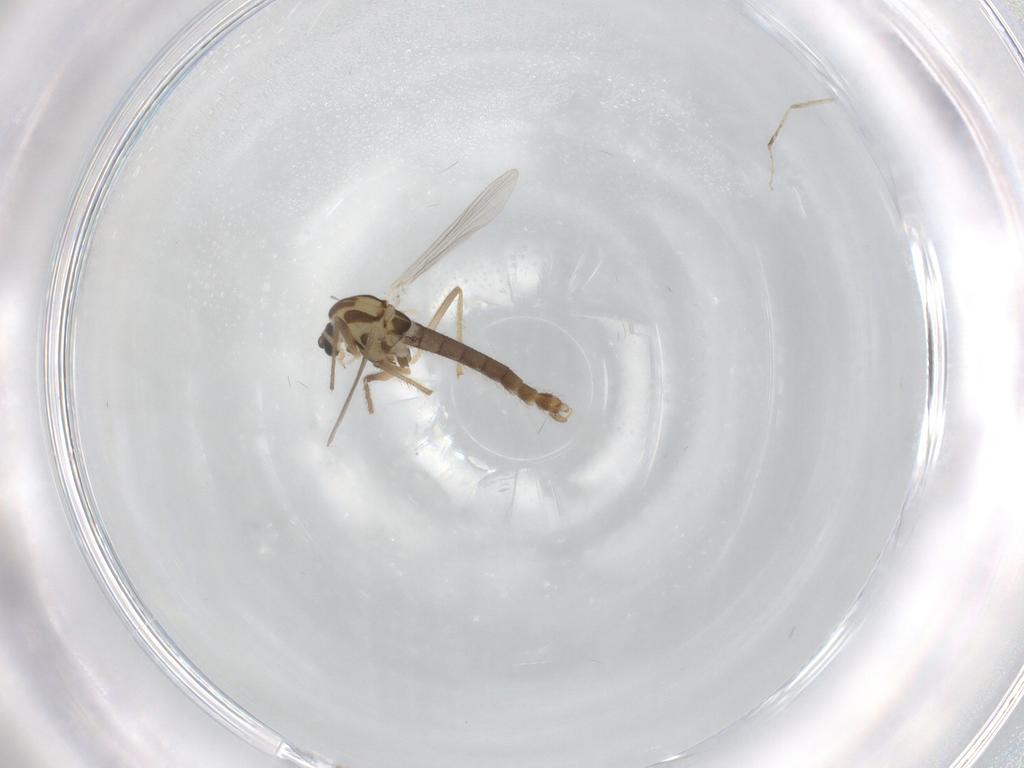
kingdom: Animalia
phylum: Arthropoda
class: Insecta
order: Diptera
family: Chironomidae
